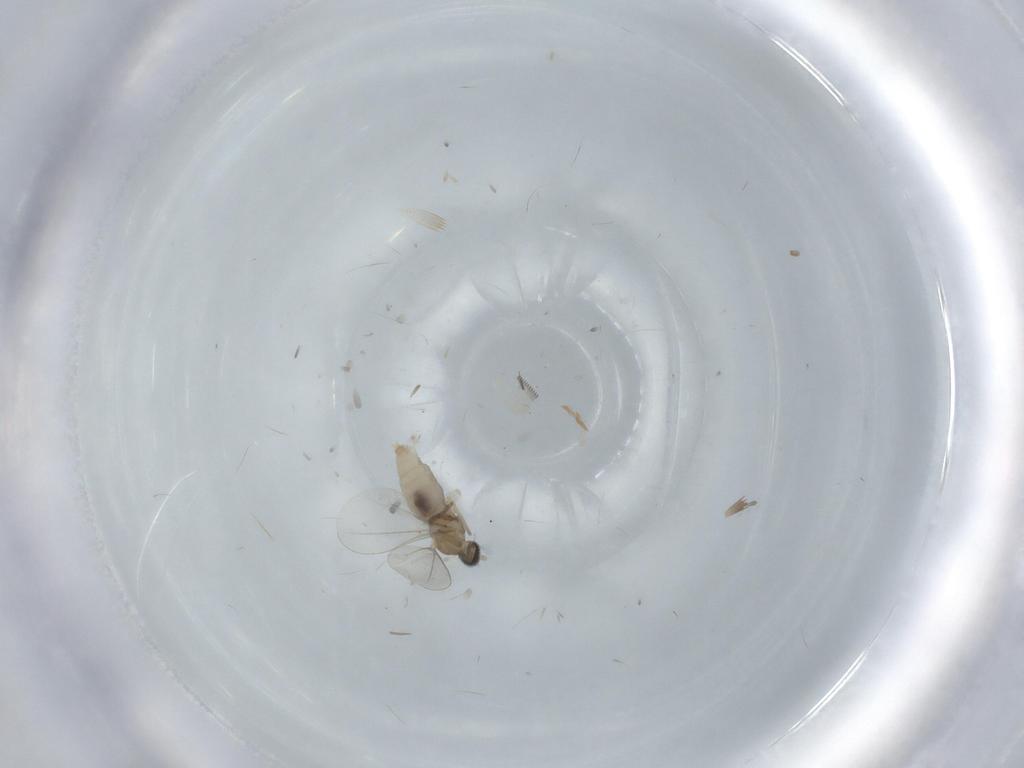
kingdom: Animalia
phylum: Arthropoda
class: Insecta
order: Diptera
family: Cecidomyiidae
